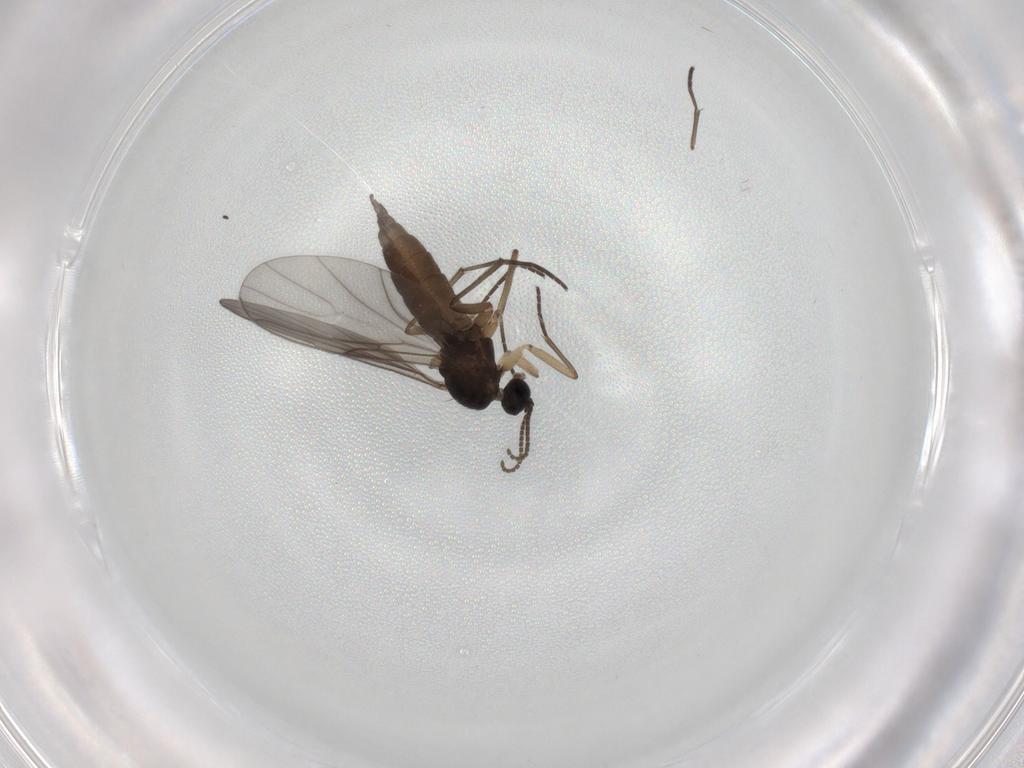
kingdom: Animalia
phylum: Arthropoda
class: Insecta
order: Diptera
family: Sciaridae
